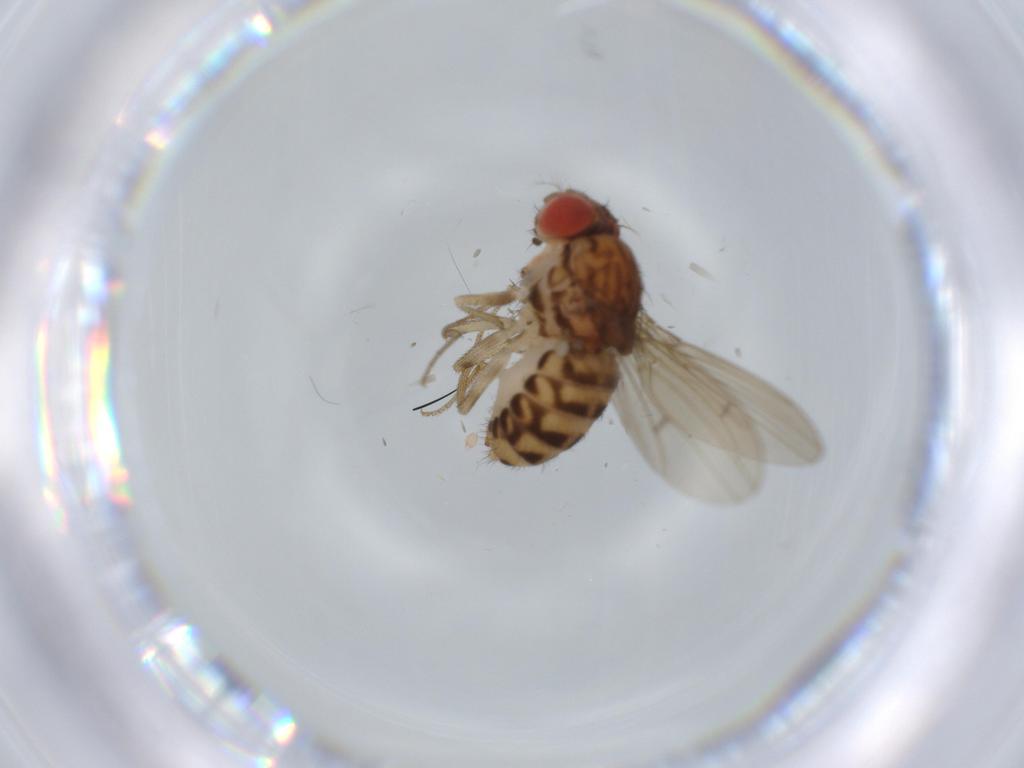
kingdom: Animalia
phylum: Arthropoda
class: Insecta
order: Diptera
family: Drosophilidae
